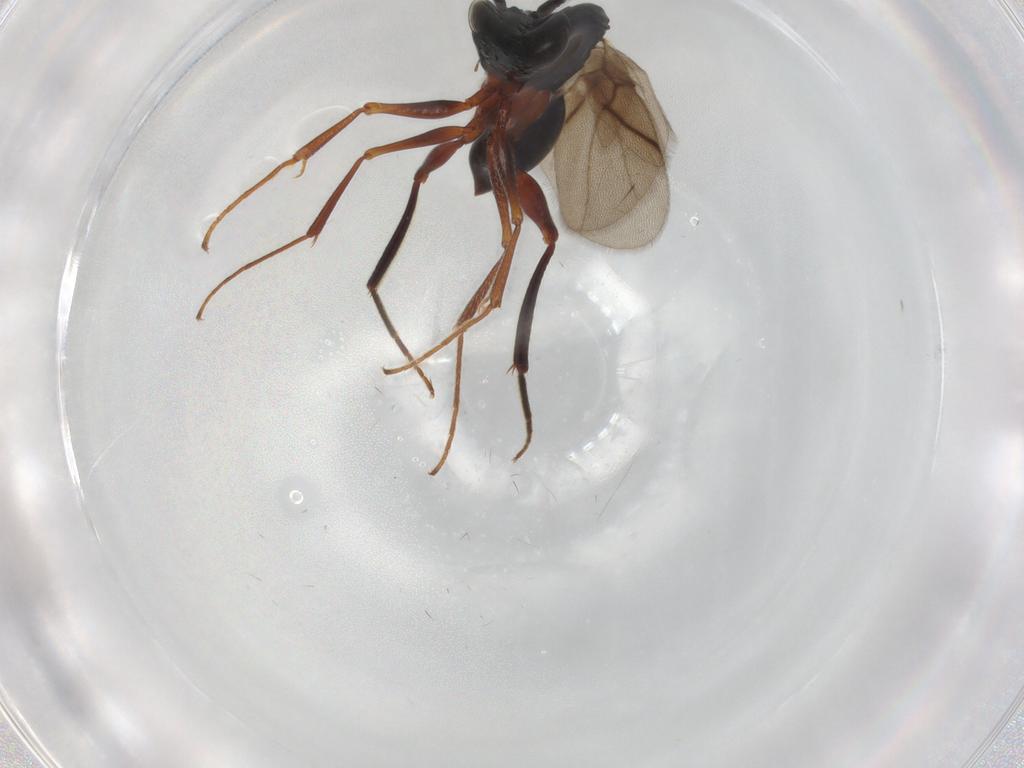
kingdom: Animalia
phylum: Arthropoda
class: Insecta
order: Hymenoptera
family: Figitidae
